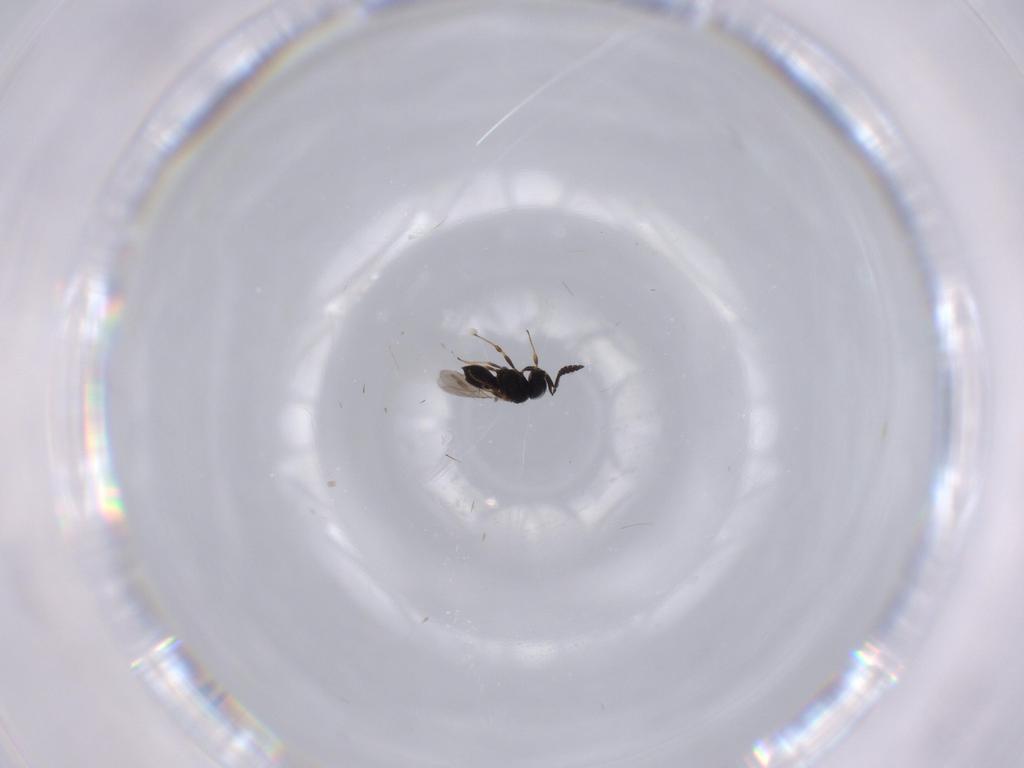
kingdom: Animalia
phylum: Arthropoda
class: Insecta
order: Hymenoptera
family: Scelionidae
